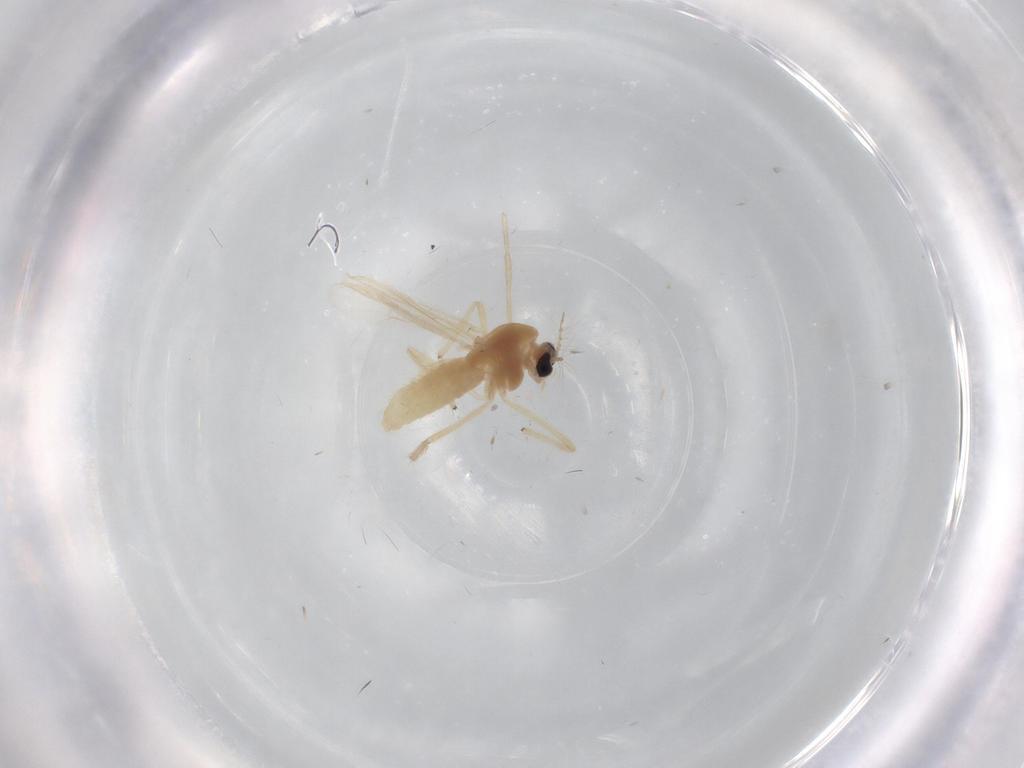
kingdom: Animalia
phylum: Arthropoda
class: Insecta
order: Diptera
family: Chironomidae
